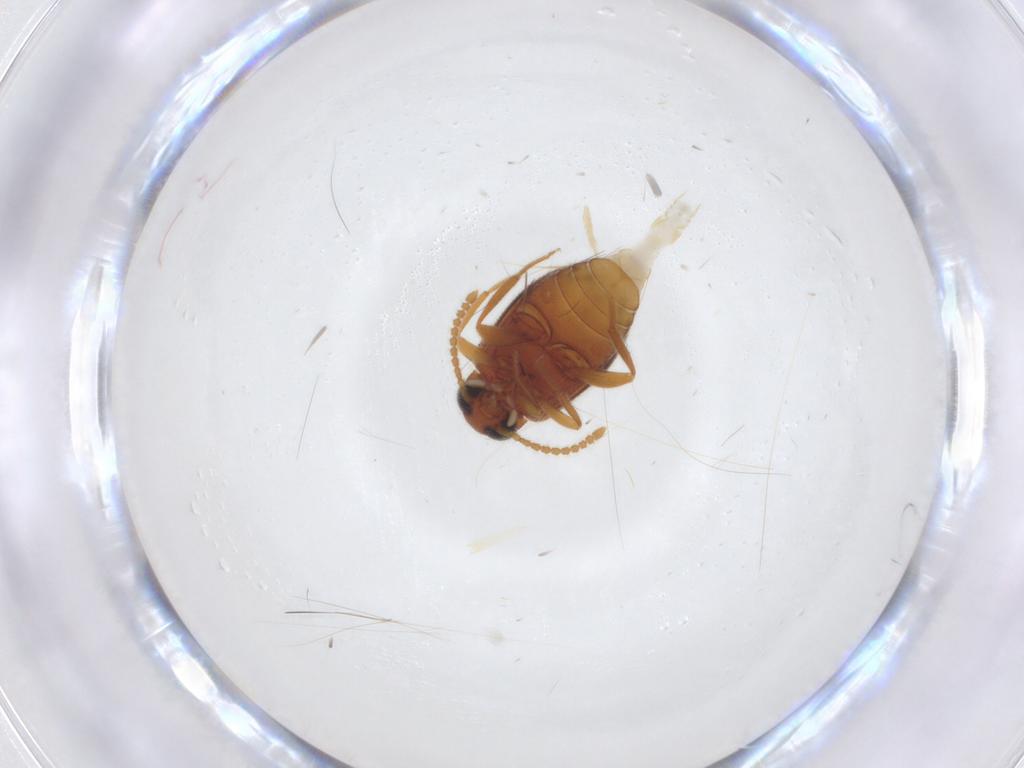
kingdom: Animalia
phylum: Arthropoda
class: Insecta
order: Coleoptera
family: Aderidae
